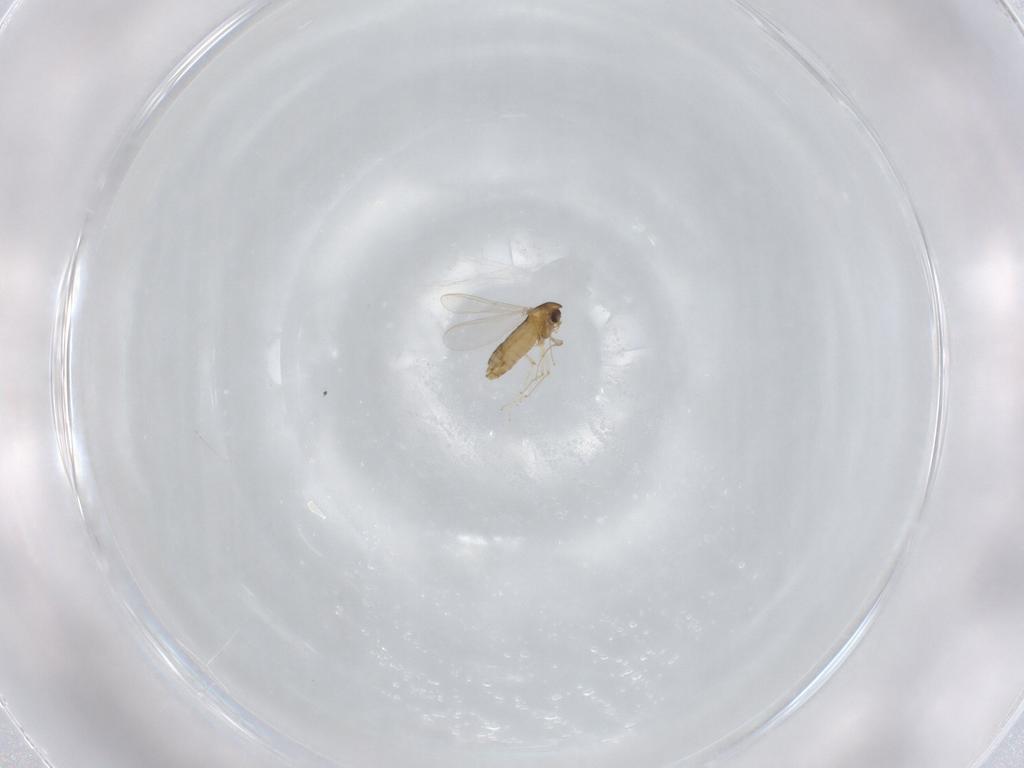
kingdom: Animalia
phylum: Arthropoda
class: Insecta
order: Diptera
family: Chironomidae
